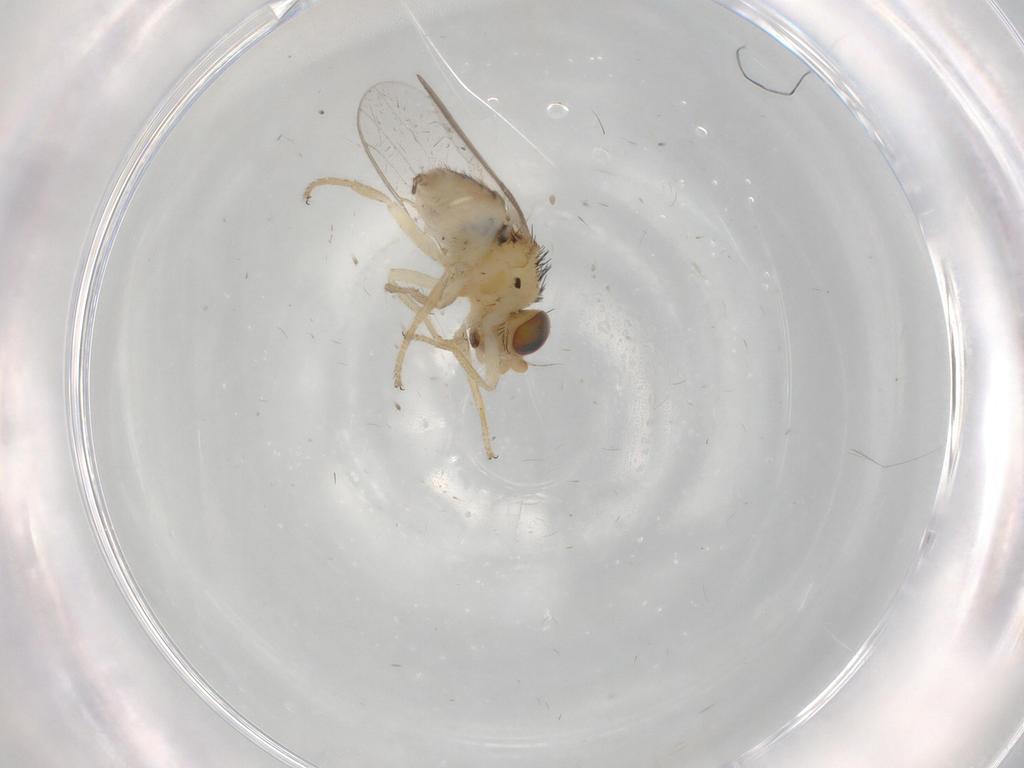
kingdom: Animalia
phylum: Arthropoda
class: Insecta
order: Diptera
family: Chloropidae
